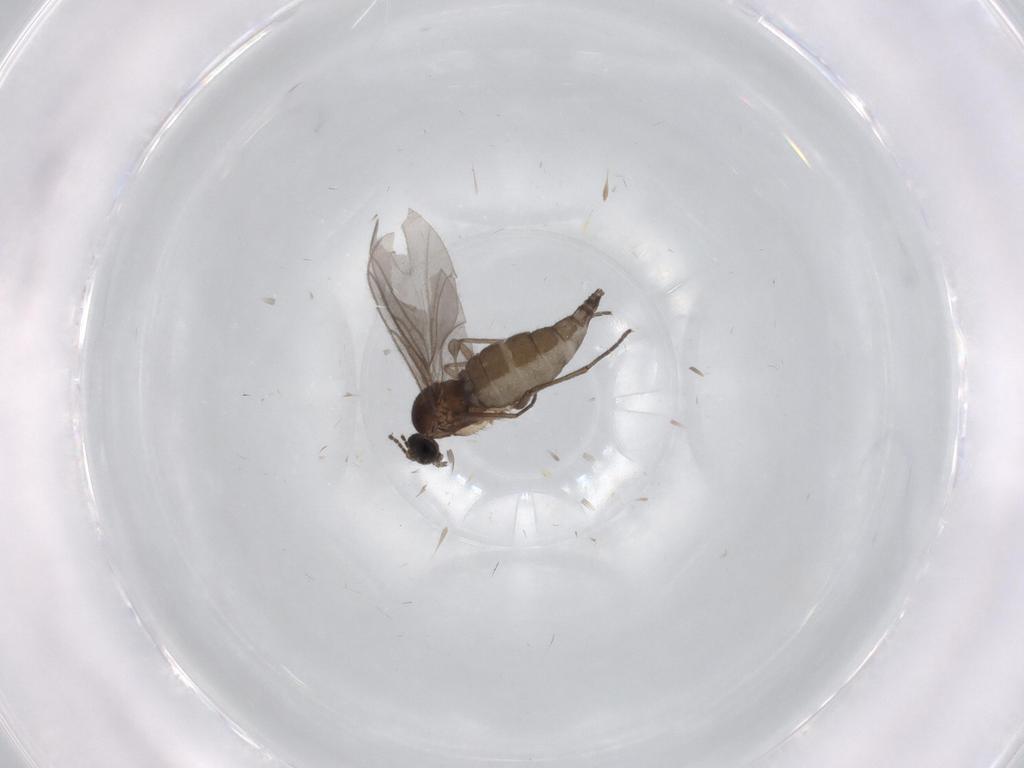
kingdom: Animalia
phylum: Arthropoda
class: Insecta
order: Diptera
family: Sciaridae
